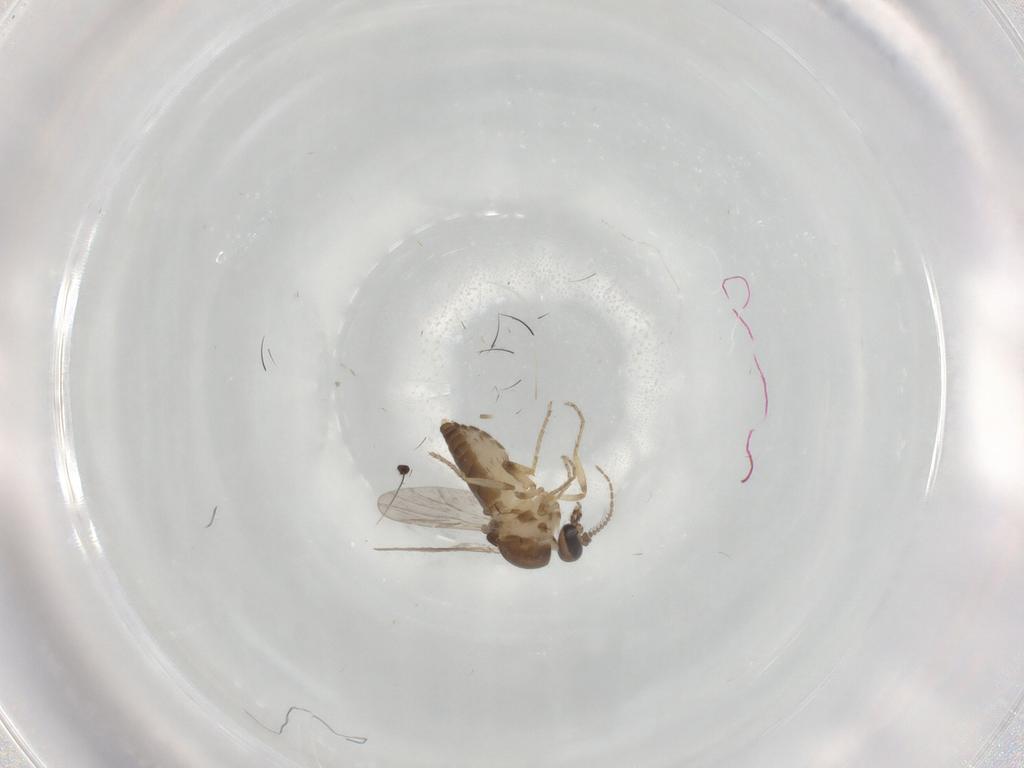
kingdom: Animalia
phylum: Arthropoda
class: Insecta
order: Diptera
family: Ceratopogonidae
